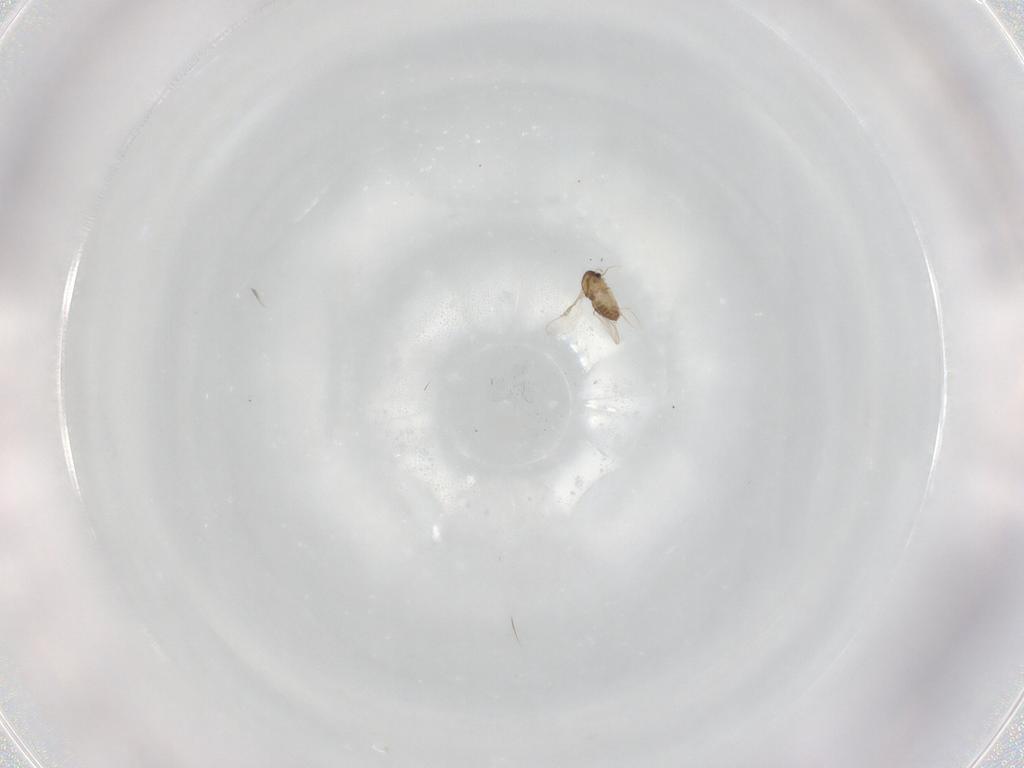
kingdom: Animalia
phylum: Arthropoda
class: Insecta
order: Diptera
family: Chironomidae
